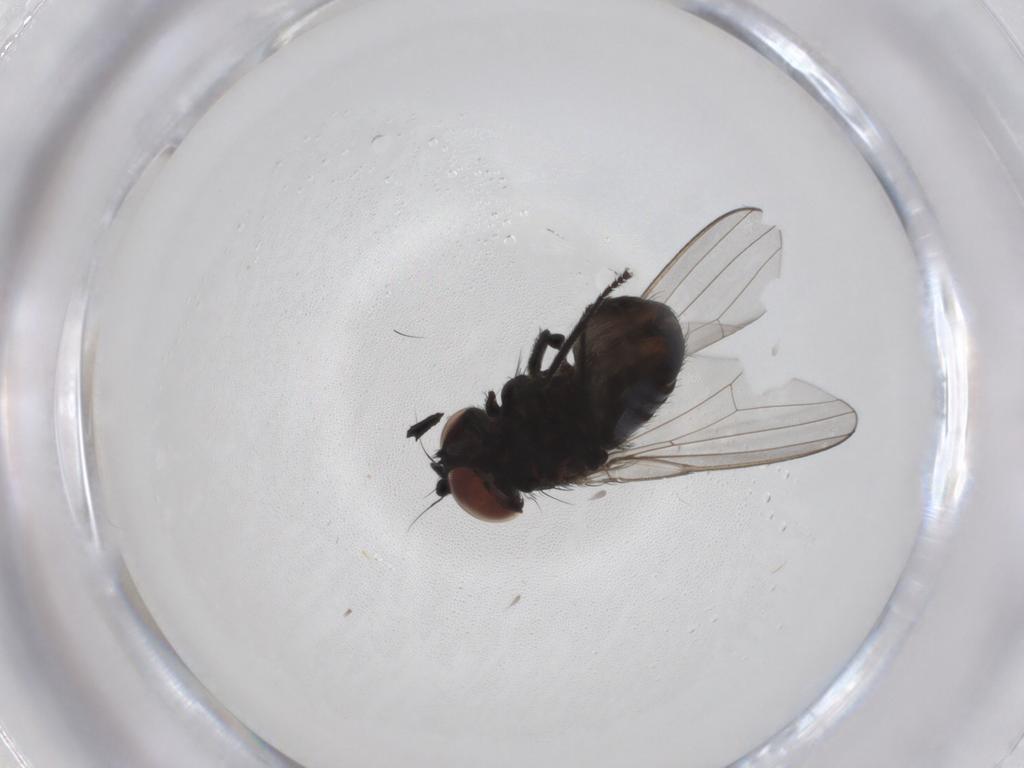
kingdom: Animalia
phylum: Arthropoda
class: Insecta
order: Diptera
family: Milichiidae
